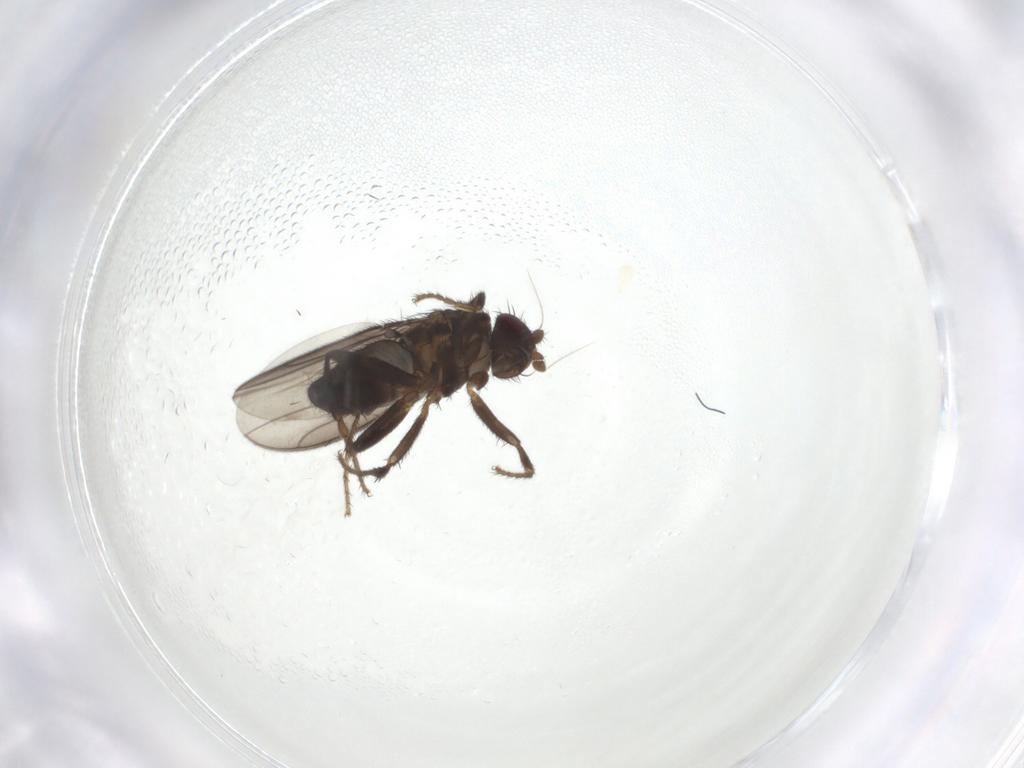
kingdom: Animalia
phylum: Arthropoda
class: Insecta
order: Diptera
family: Sphaeroceridae
